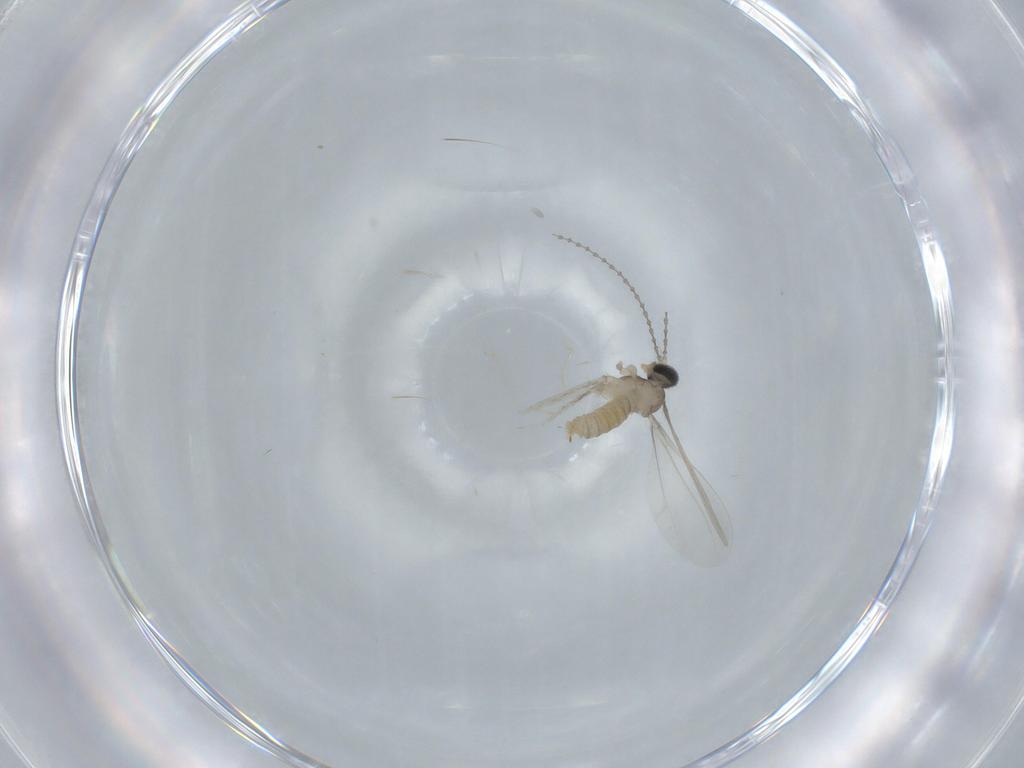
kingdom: Animalia
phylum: Arthropoda
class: Insecta
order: Diptera
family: Cecidomyiidae
